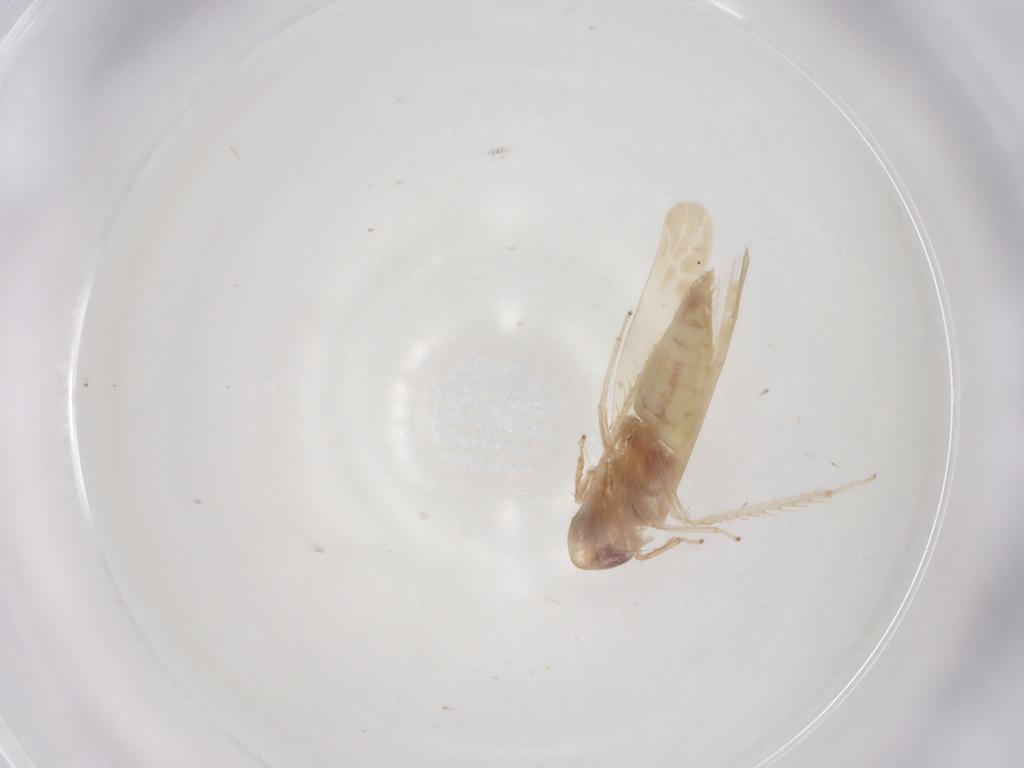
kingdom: Animalia
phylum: Arthropoda
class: Insecta
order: Hemiptera
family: Cicadellidae
